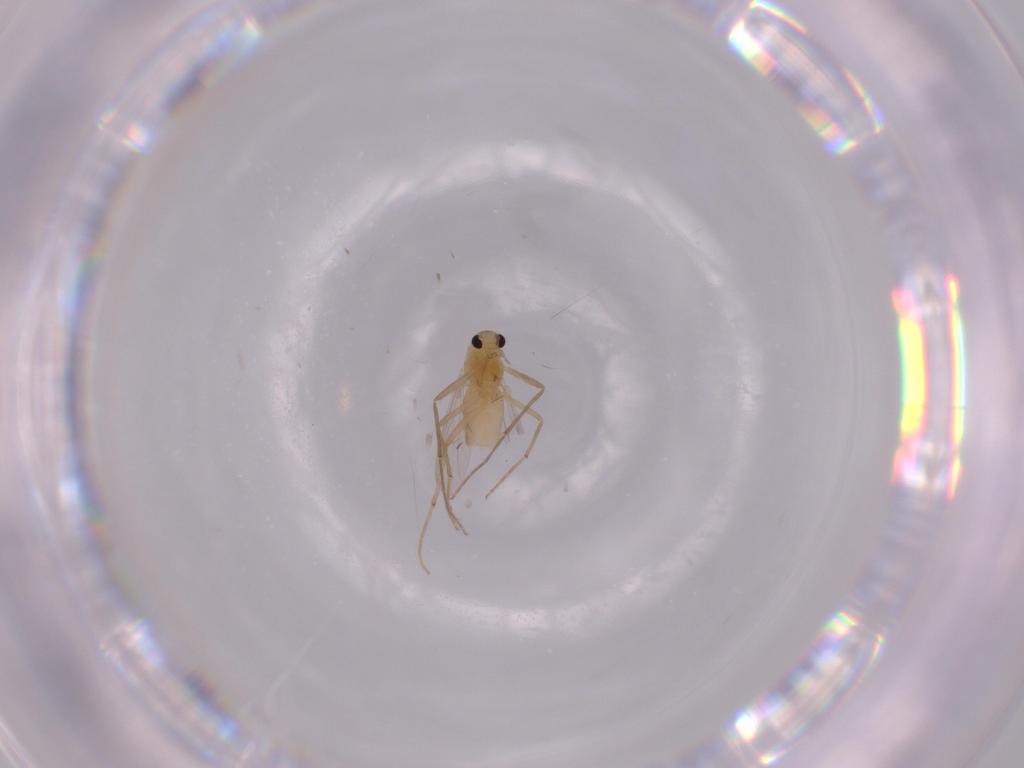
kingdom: Animalia
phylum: Arthropoda
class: Insecta
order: Diptera
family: Chironomidae
